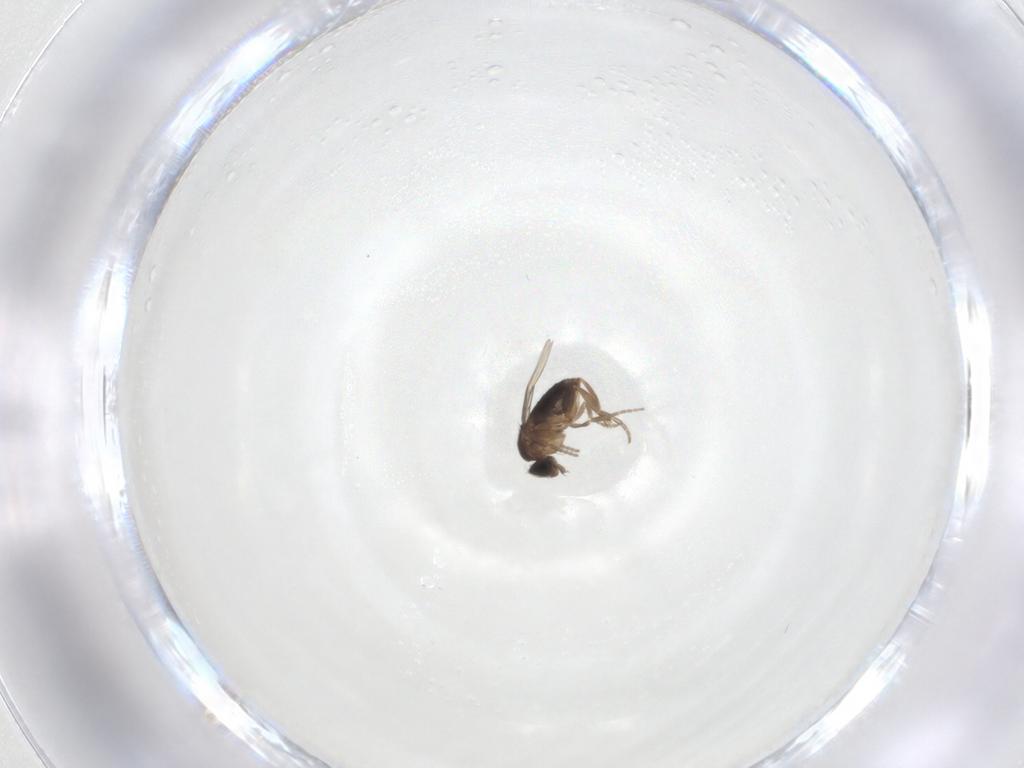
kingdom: Animalia
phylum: Arthropoda
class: Insecta
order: Diptera
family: Phoridae
